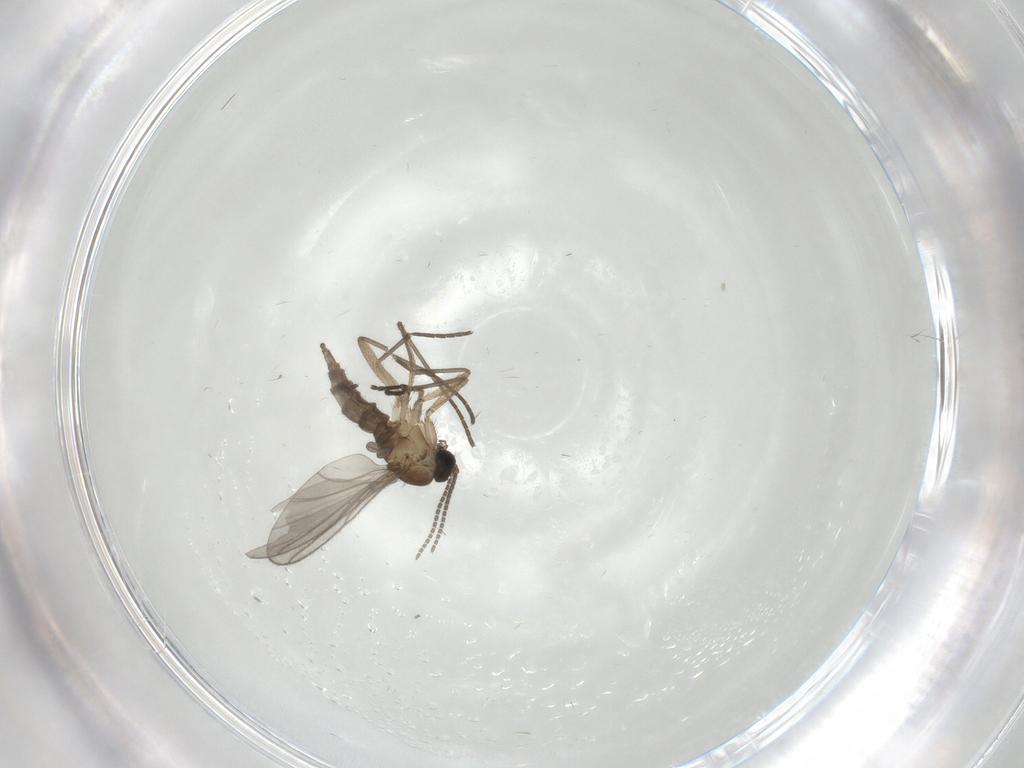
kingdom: Animalia
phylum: Arthropoda
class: Insecta
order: Diptera
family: Sciaridae
